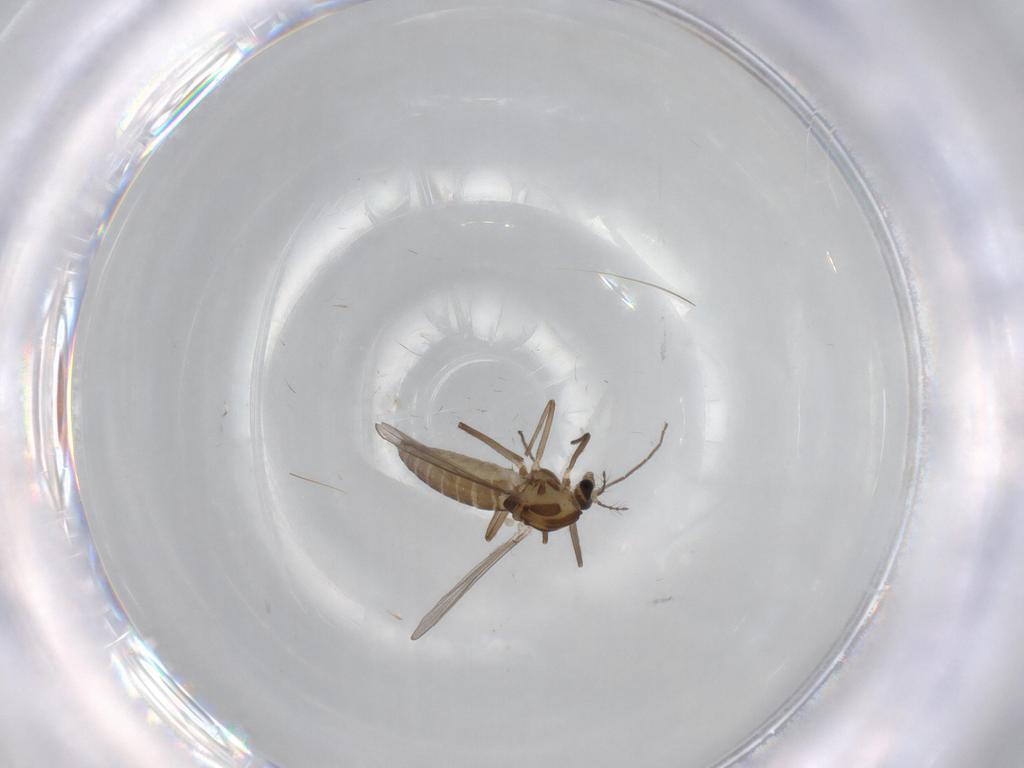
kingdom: Animalia
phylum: Arthropoda
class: Insecta
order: Diptera
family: Chironomidae
